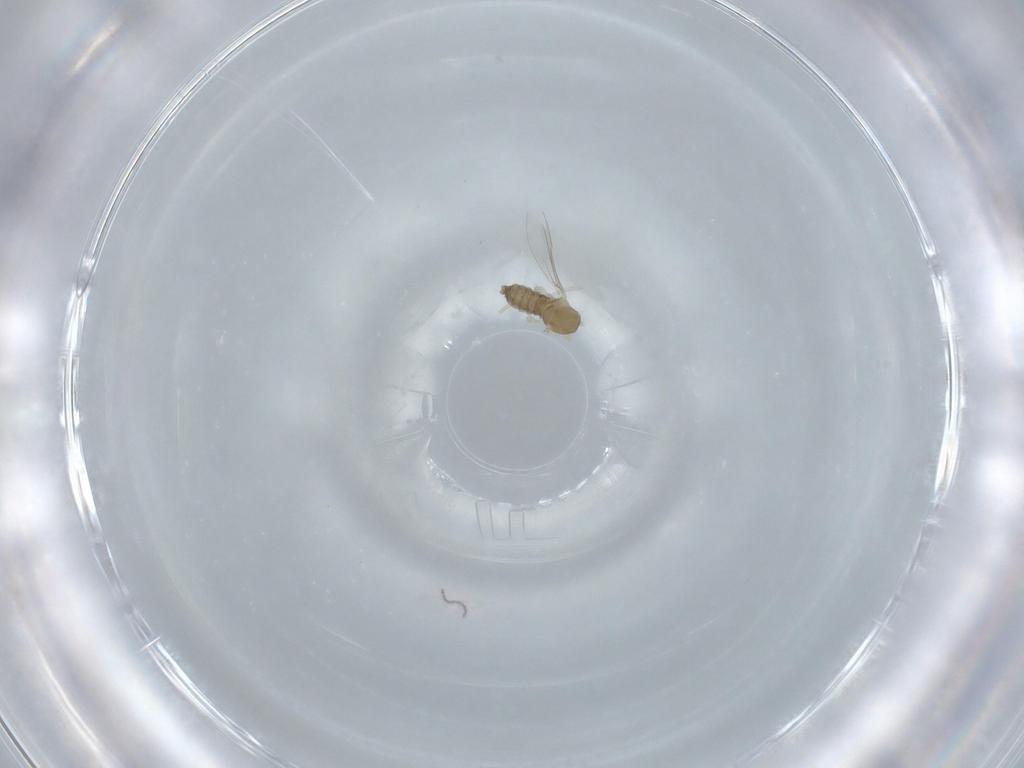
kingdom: Animalia
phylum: Arthropoda
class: Insecta
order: Diptera
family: Cecidomyiidae
